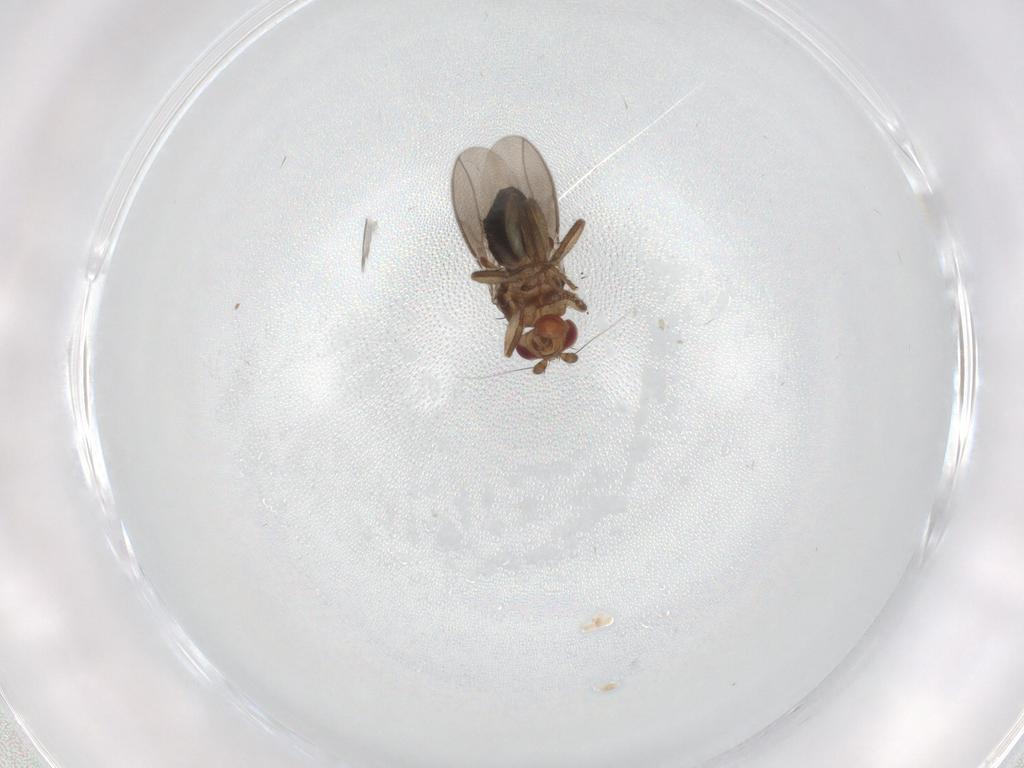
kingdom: Animalia
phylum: Arthropoda
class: Insecta
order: Diptera
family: Sphaeroceridae
